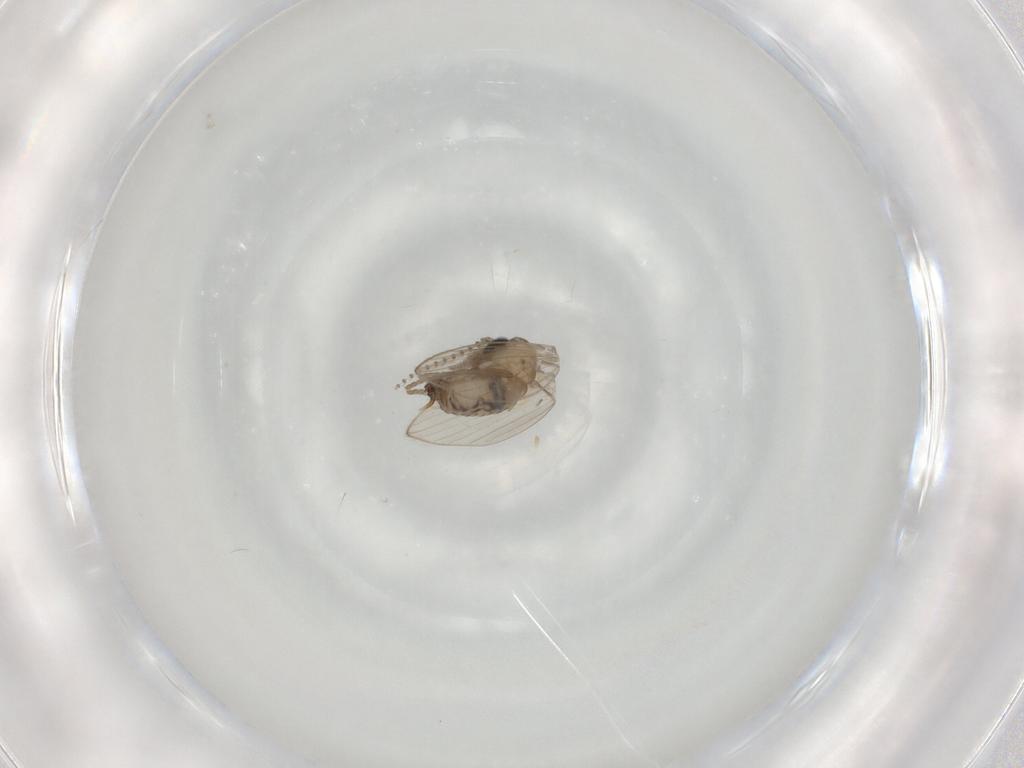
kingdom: Animalia
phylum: Arthropoda
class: Insecta
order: Diptera
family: Psychodidae
